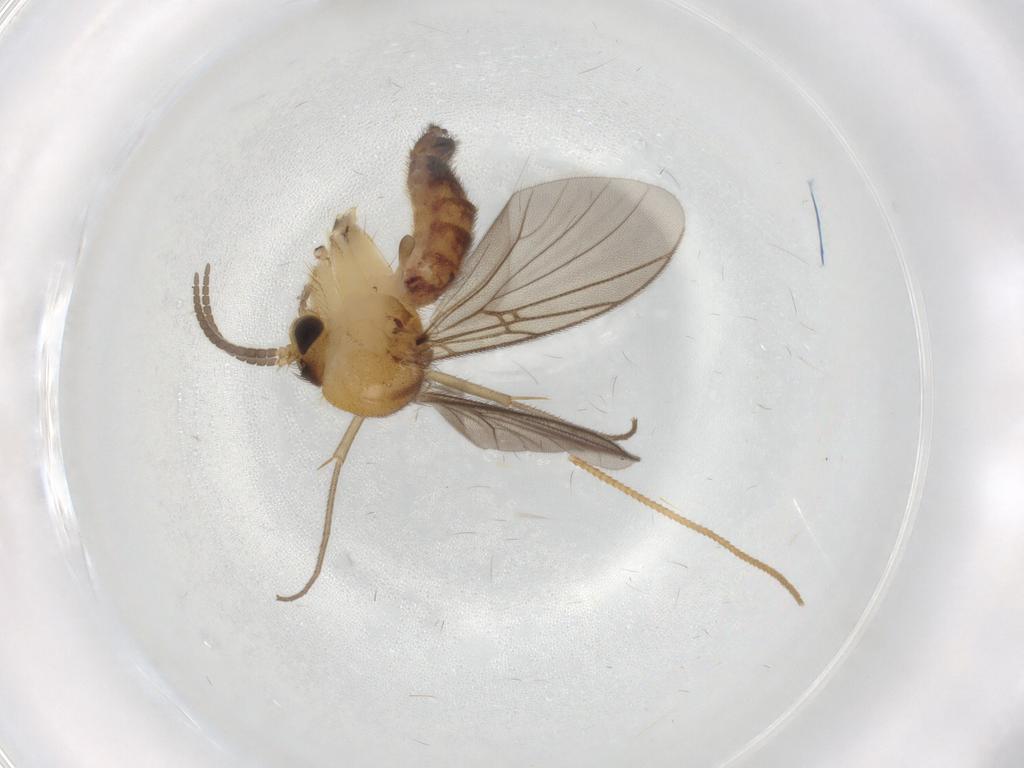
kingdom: Animalia
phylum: Arthropoda
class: Insecta
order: Diptera
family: Chironomidae
